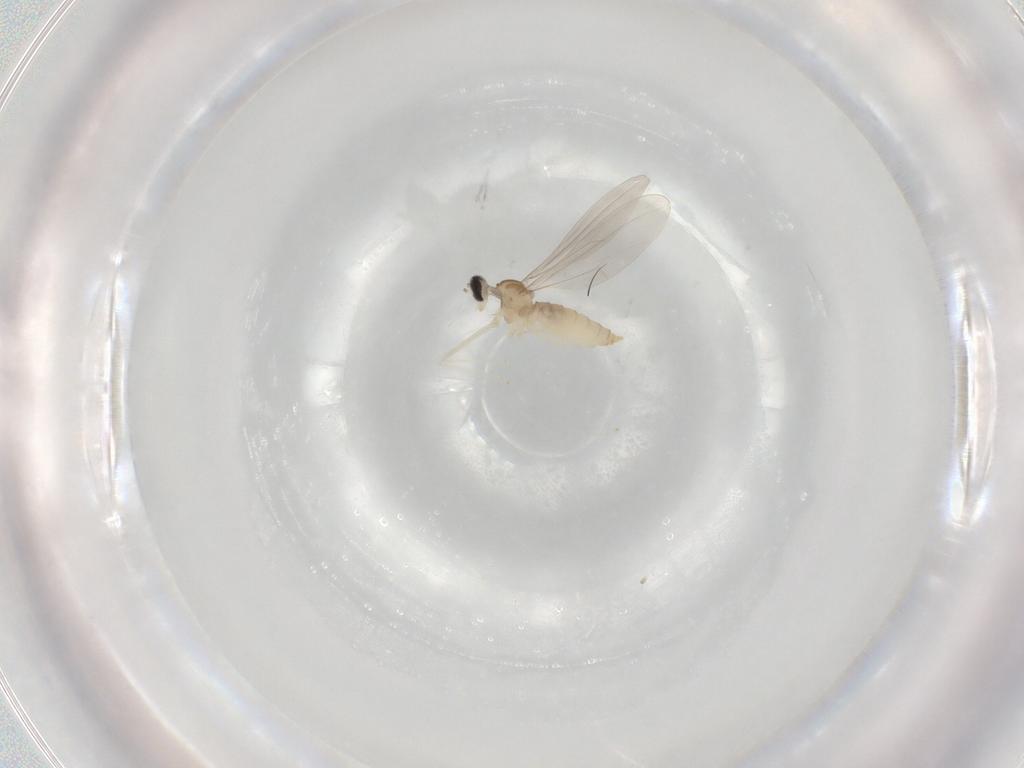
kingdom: Animalia
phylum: Arthropoda
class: Insecta
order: Diptera
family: Cecidomyiidae
